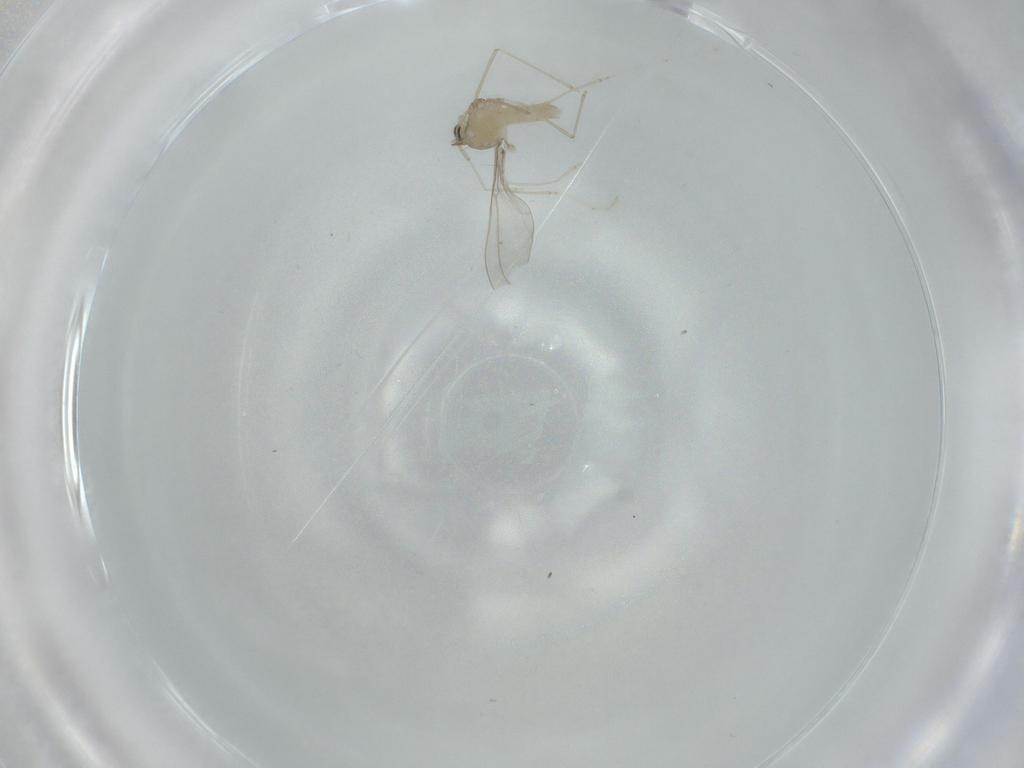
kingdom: Animalia
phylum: Arthropoda
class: Insecta
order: Diptera
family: Cecidomyiidae
